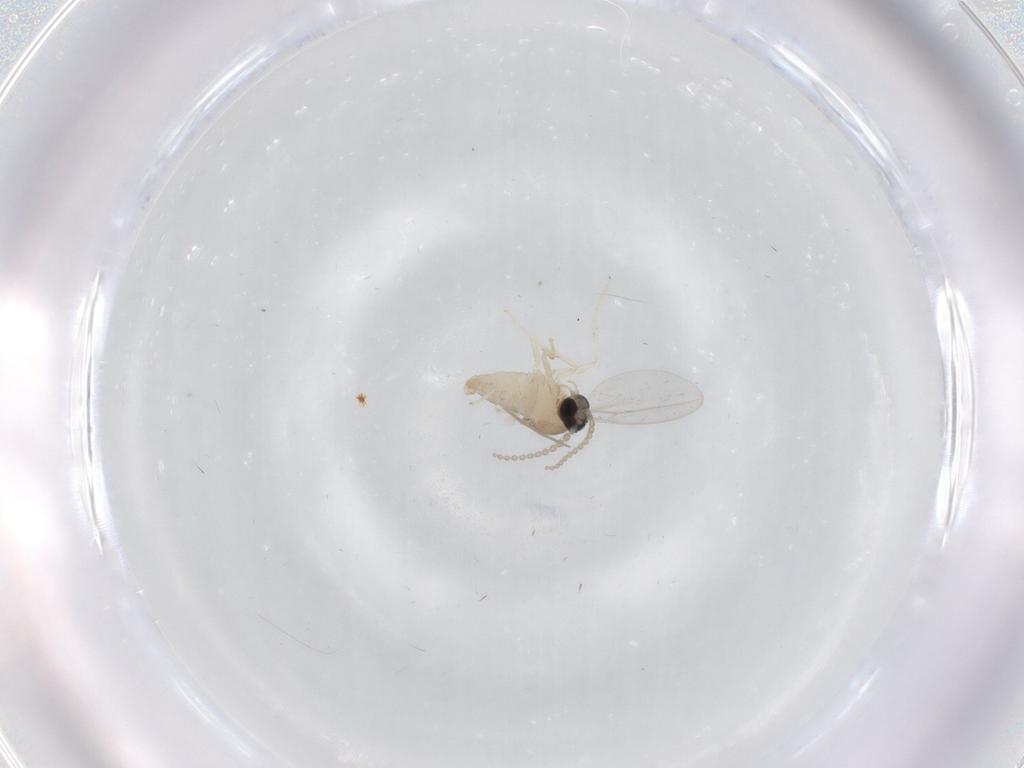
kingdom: Animalia
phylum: Arthropoda
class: Insecta
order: Diptera
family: Cecidomyiidae
